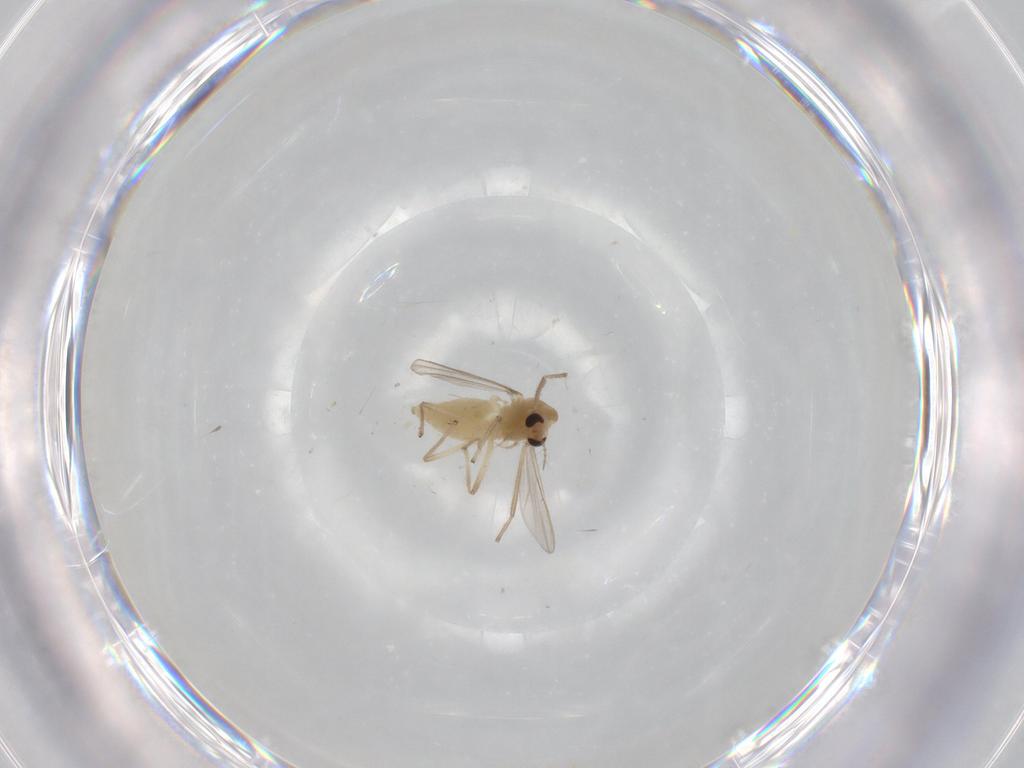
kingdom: Animalia
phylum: Arthropoda
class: Insecta
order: Diptera
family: Chironomidae
